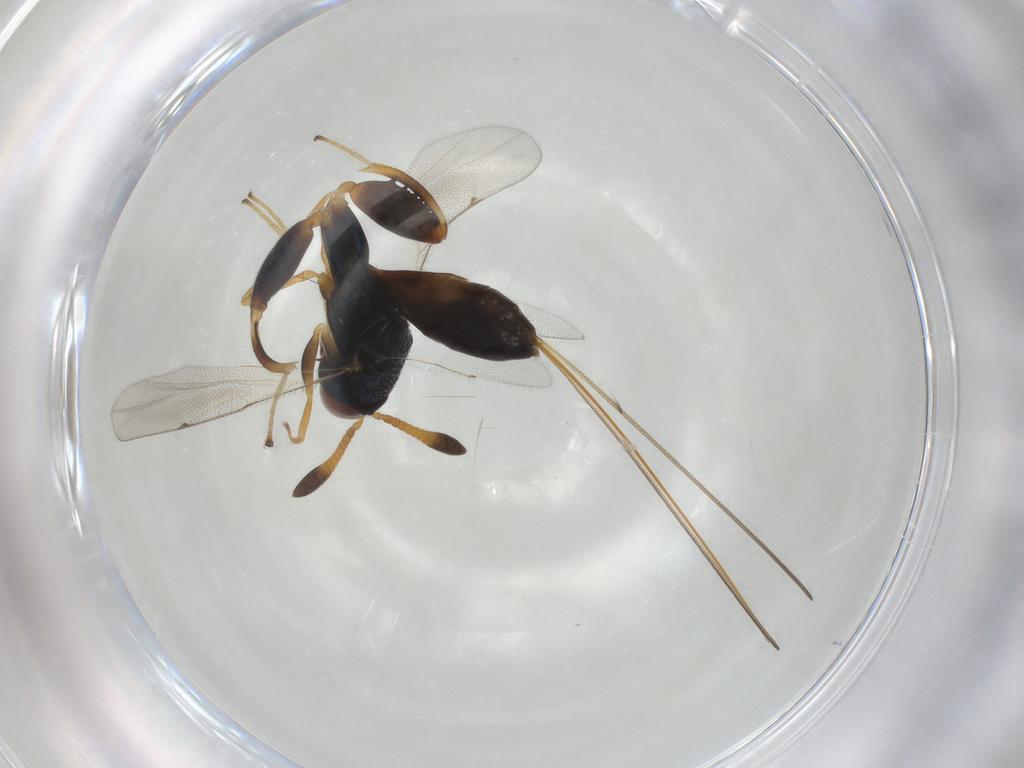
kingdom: Animalia
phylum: Arthropoda
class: Insecta
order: Hymenoptera
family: Torymidae
